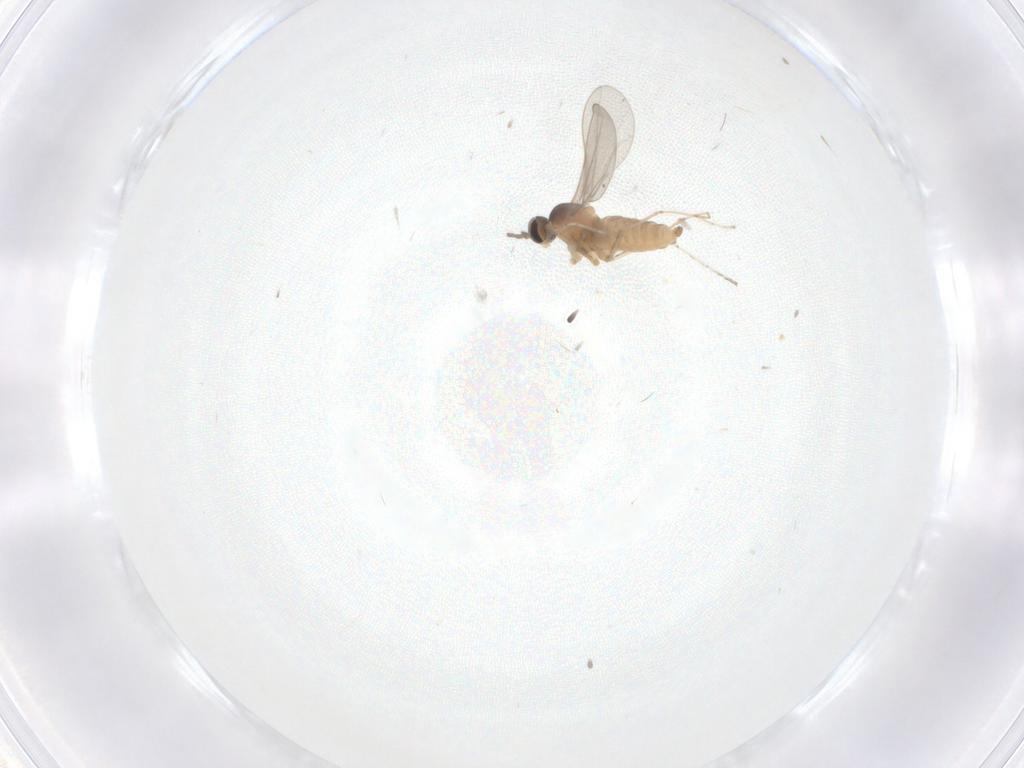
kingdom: Animalia
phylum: Arthropoda
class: Insecta
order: Diptera
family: Cecidomyiidae
